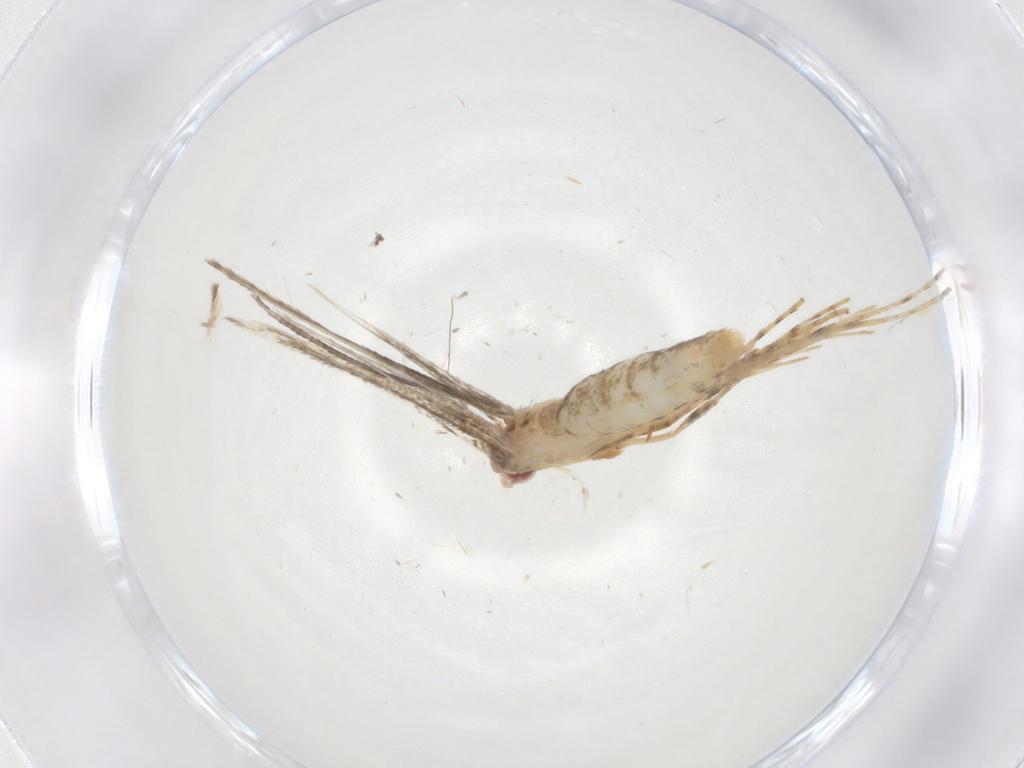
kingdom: Animalia
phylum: Arthropoda
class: Insecta
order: Lepidoptera
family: Gracillariidae
